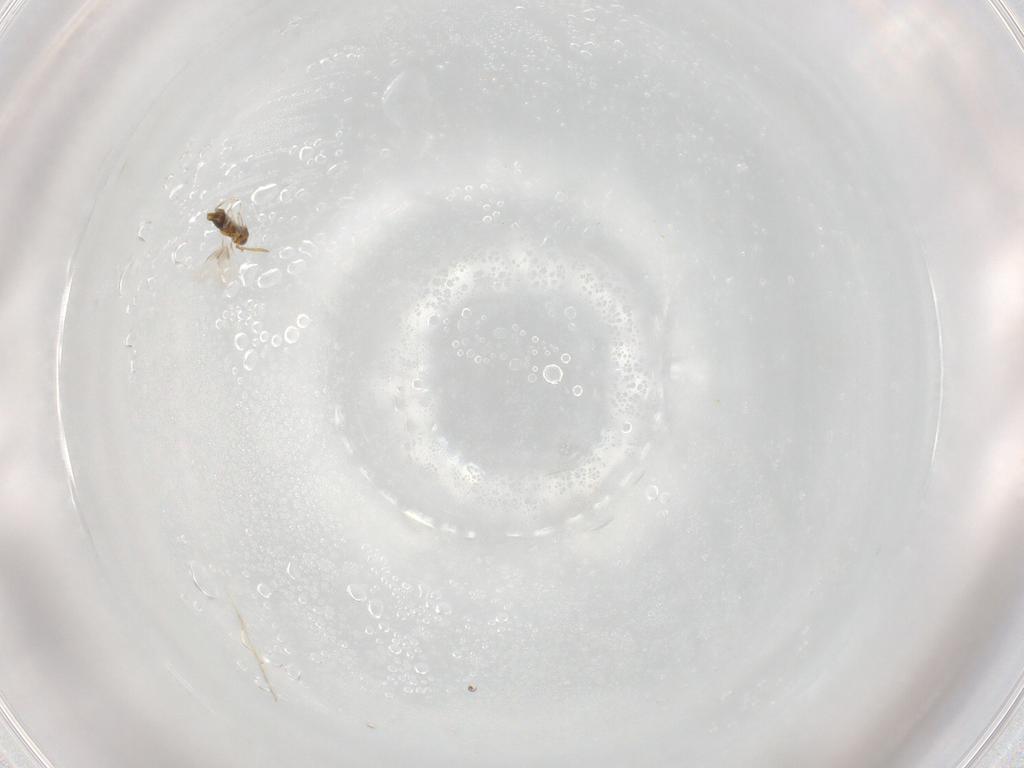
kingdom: Animalia
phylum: Arthropoda
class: Insecta
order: Hymenoptera
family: Aphelinidae
